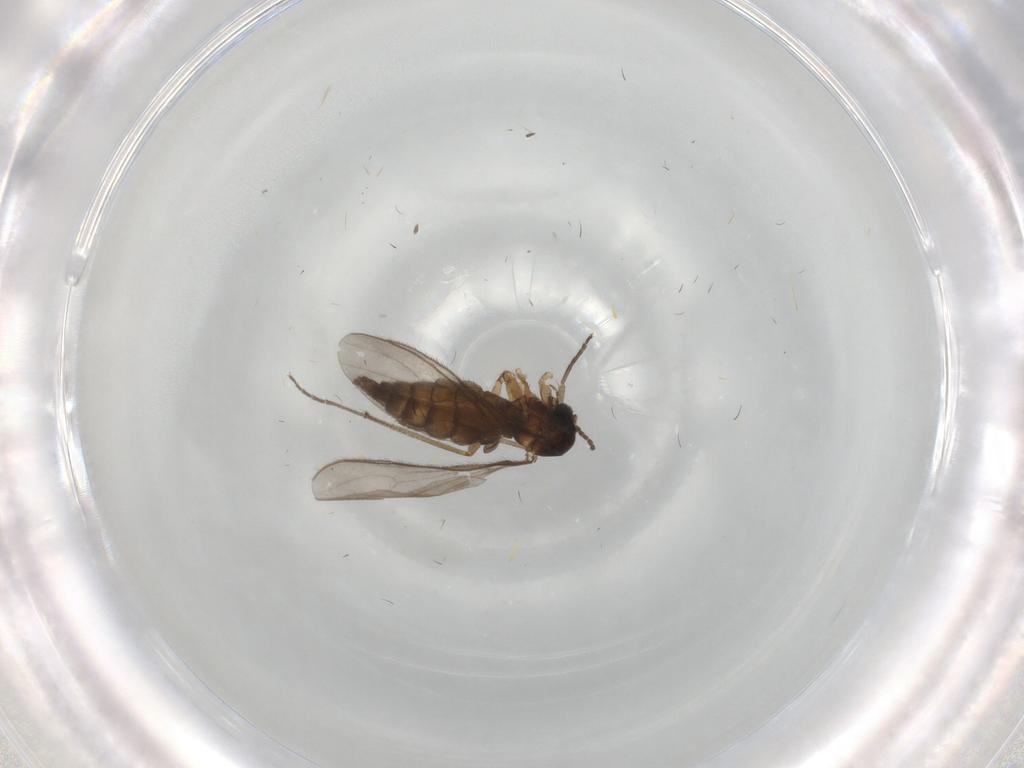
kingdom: Animalia
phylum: Arthropoda
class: Insecta
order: Diptera
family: Sciaridae
